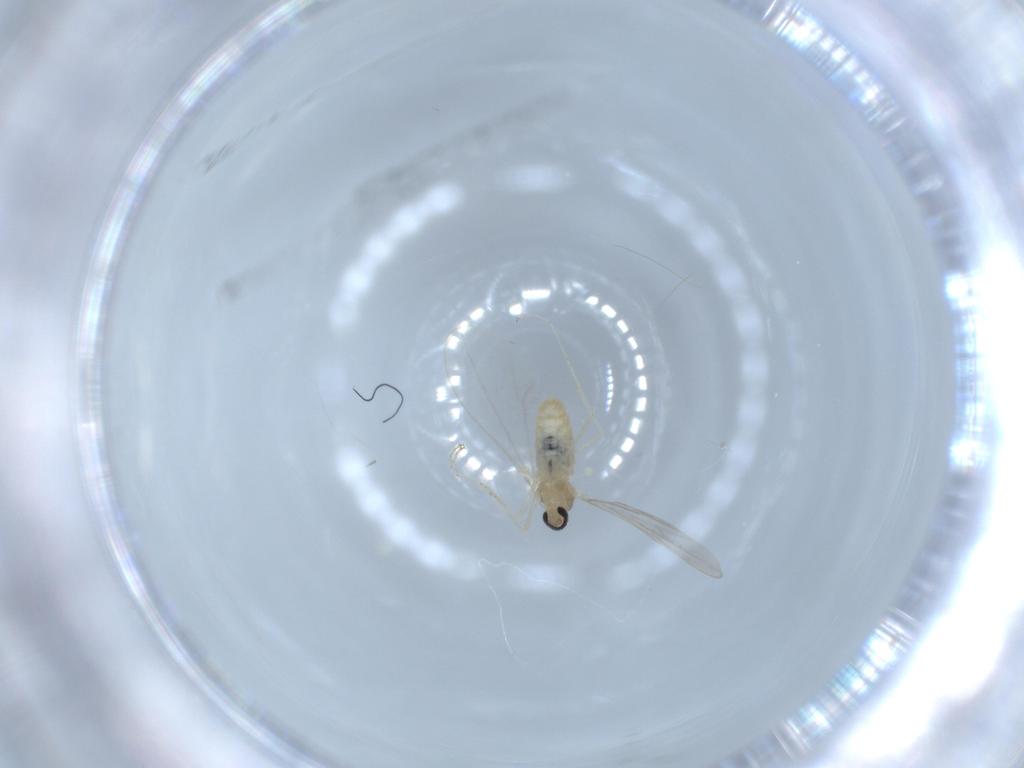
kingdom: Animalia
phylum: Arthropoda
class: Insecta
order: Diptera
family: Cecidomyiidae
